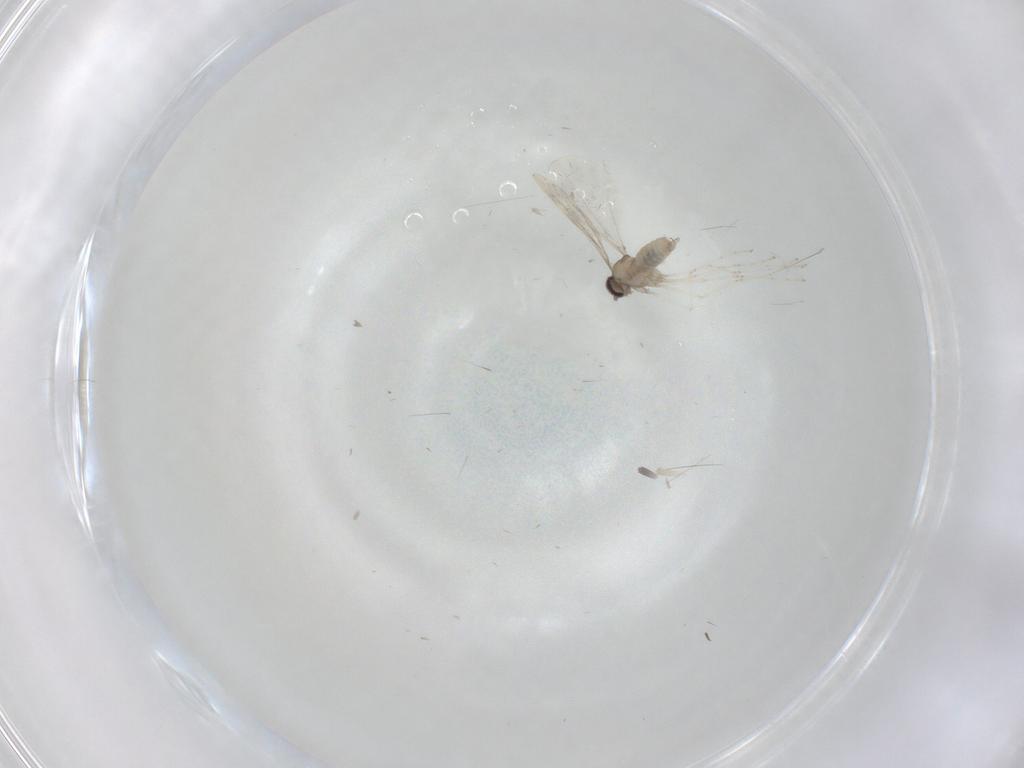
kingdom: Animalia
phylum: Arthropoda
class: Insecta
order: Diptera
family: Cecidomyiidae
